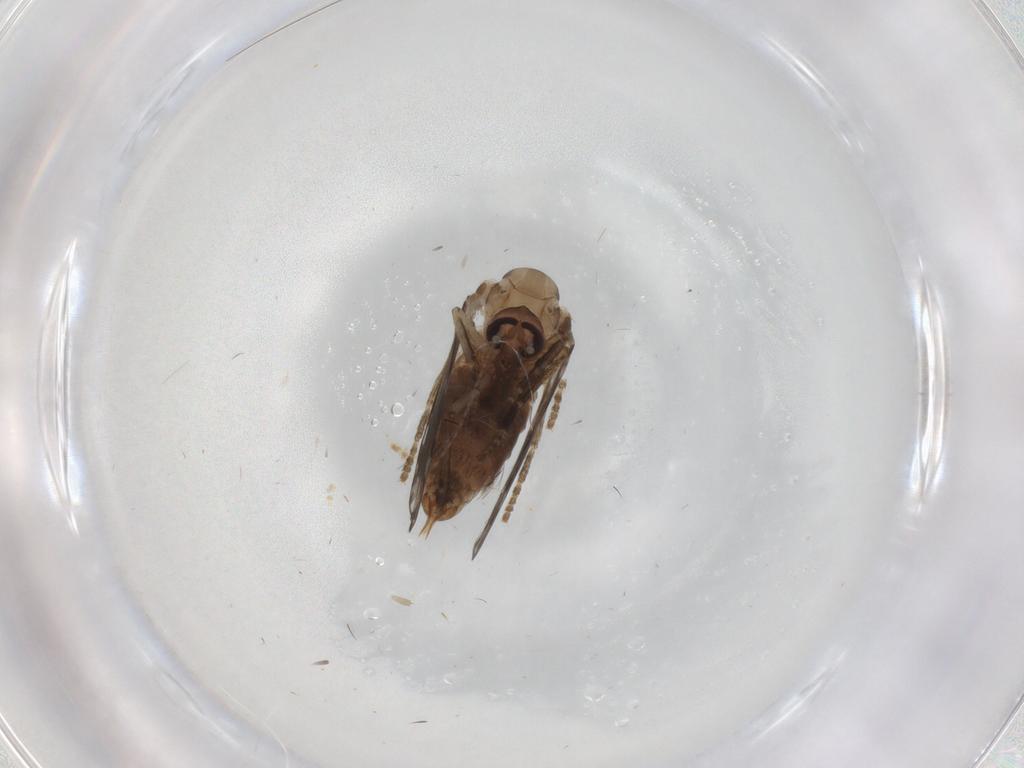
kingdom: Animalia
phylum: Arthropoda
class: Insecta
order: Diptera
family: Psychodidae
